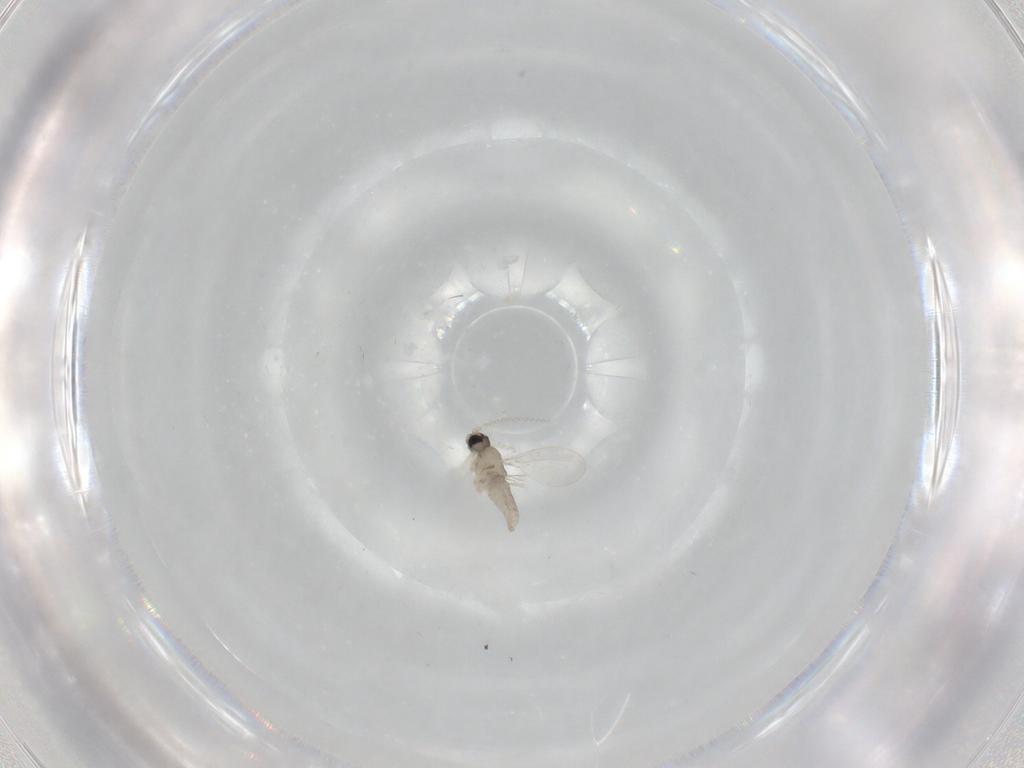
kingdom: Animalia
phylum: Arthropoda
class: Insecta
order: Diptera
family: Cecidomyiidae
